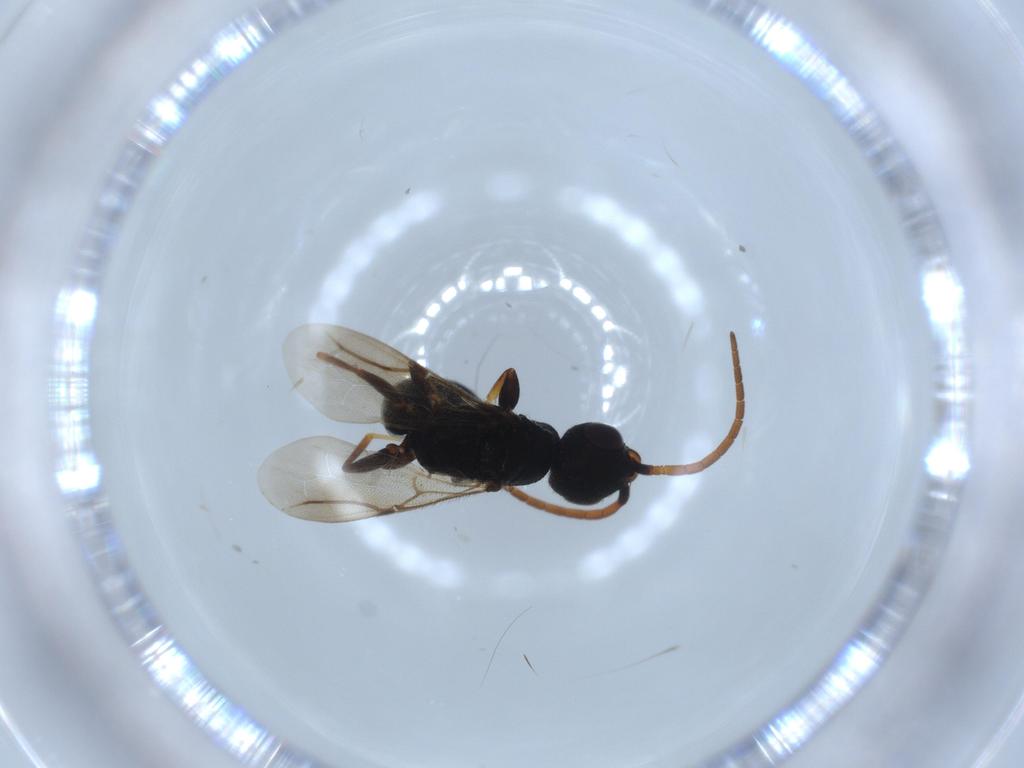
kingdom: Animalia
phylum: Arthropoda
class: Insecta
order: Hymenoptera
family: Bethylidae
